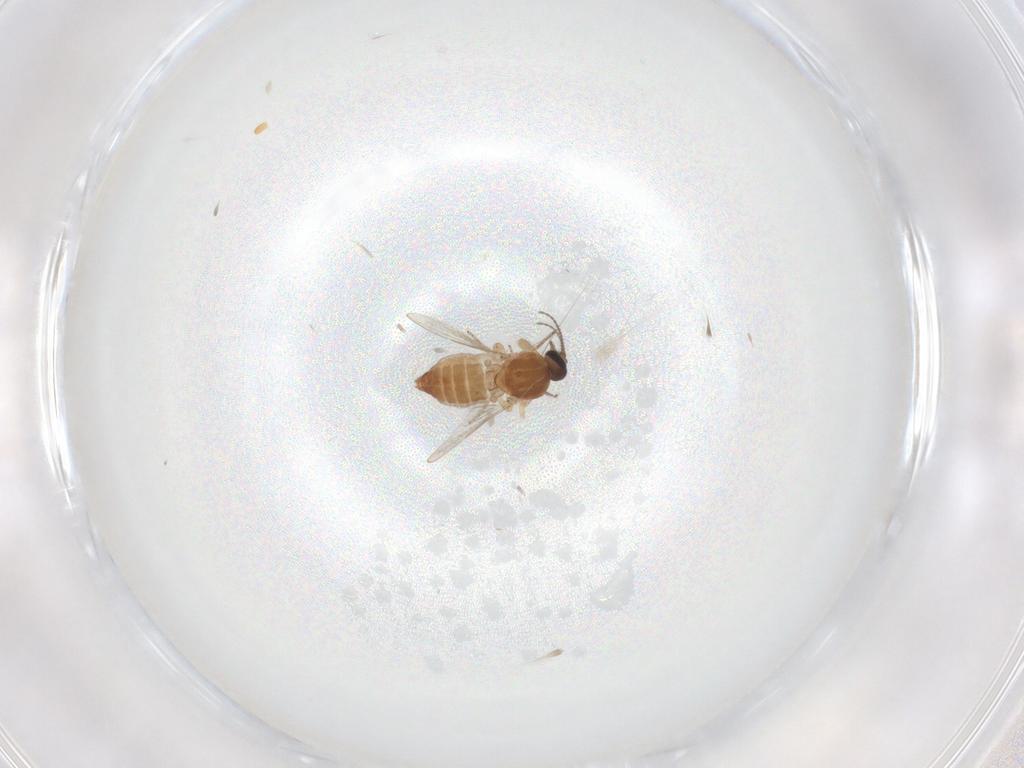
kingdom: Animalia
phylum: Arthropoda
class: Insecta
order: Diptera
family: Ceratopogonidae
